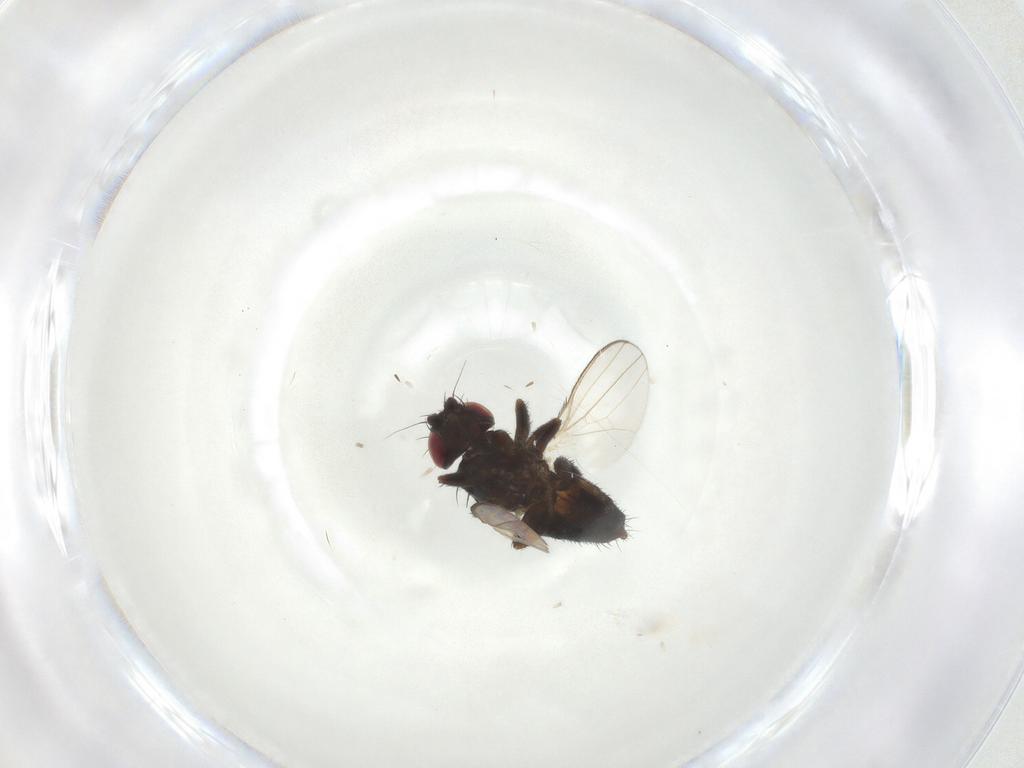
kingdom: Animalia
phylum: Arthropoda
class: Insecta
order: Diptera
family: Milichiidae
